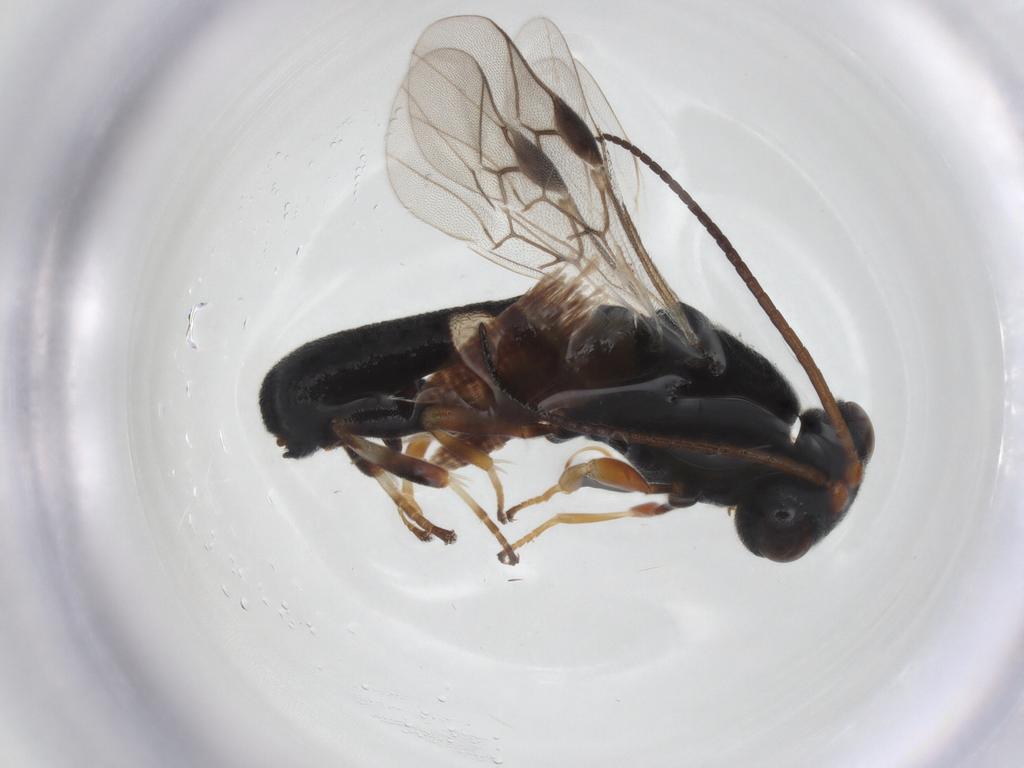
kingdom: Animalia
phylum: Arthropoda
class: Insecta
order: Hymenoptera
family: Braconidae
